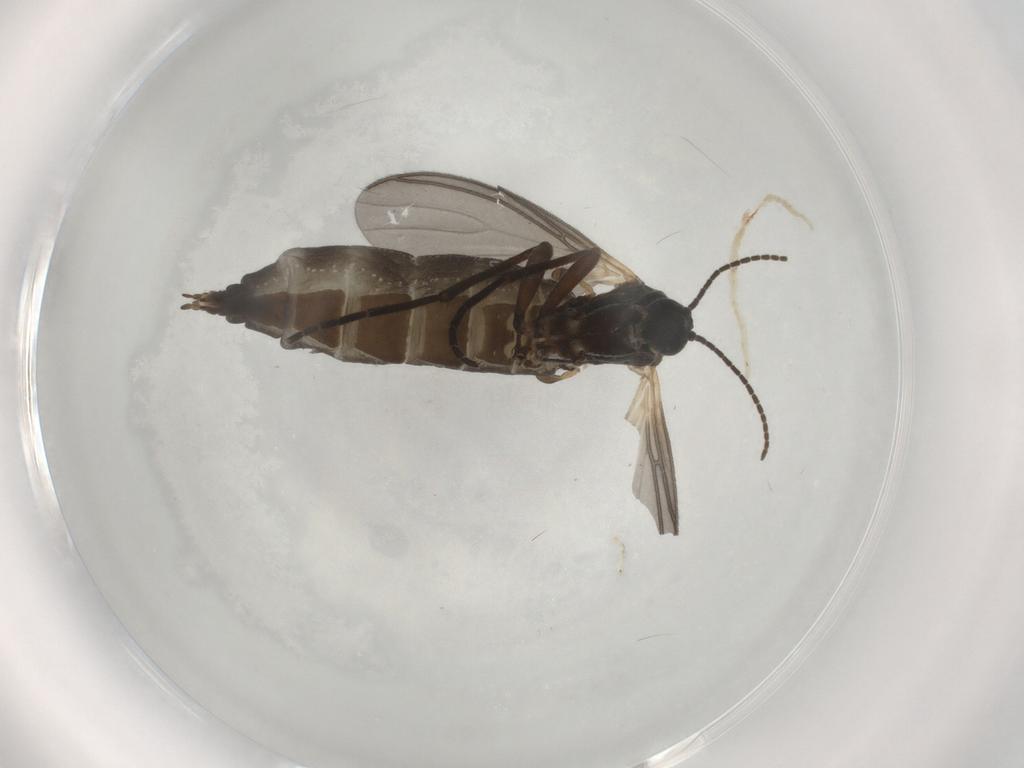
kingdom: Animalia
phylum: Arthropoda
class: Insecta
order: Diptera
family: Sciaridae
